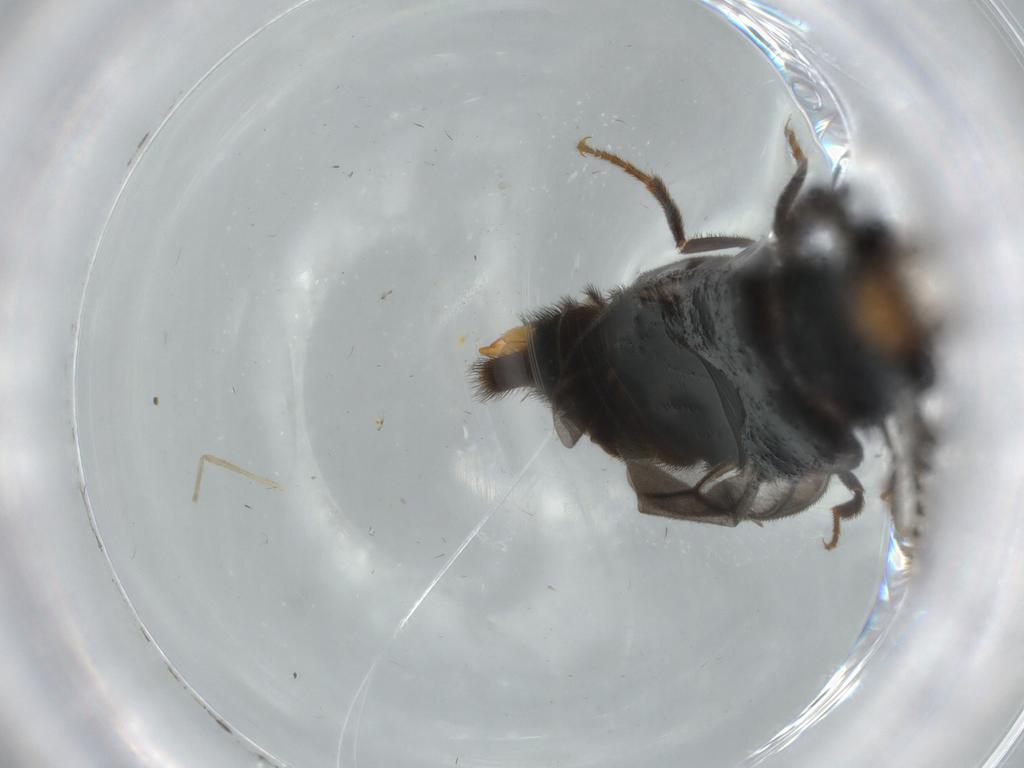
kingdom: Animalia
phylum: Arthropoda
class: Insecta
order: Coleoptera
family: Phengodidae
